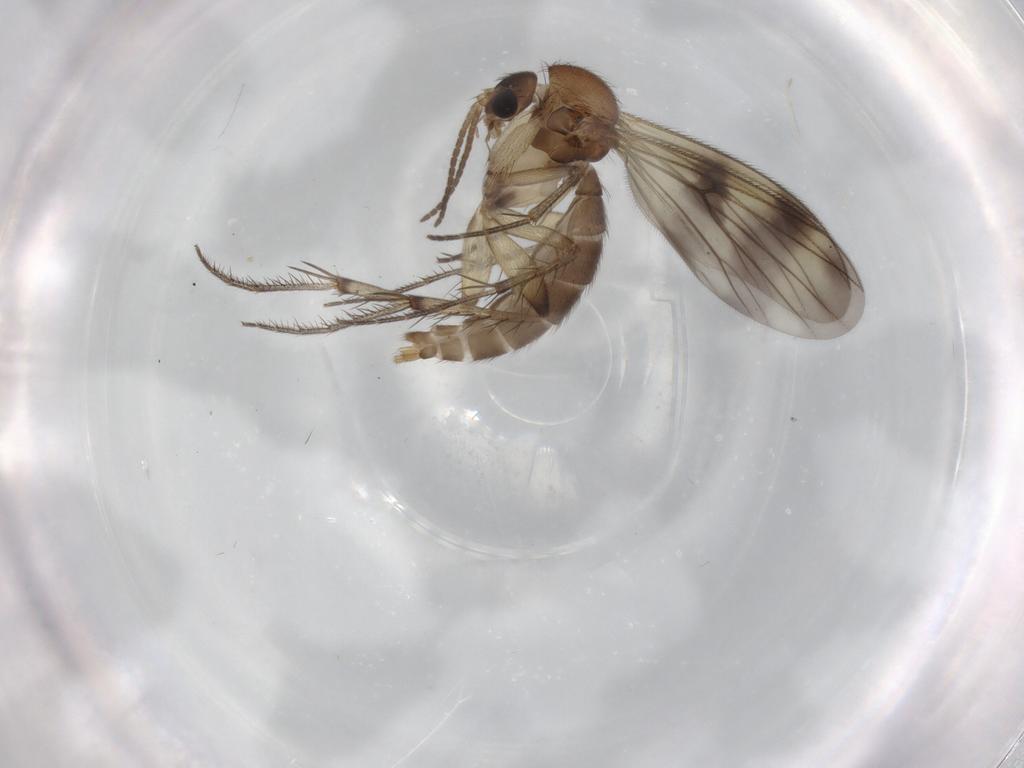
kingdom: Animalia
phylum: Arthropoda
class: Insecta
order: Diptera
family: Mycetophilidae
